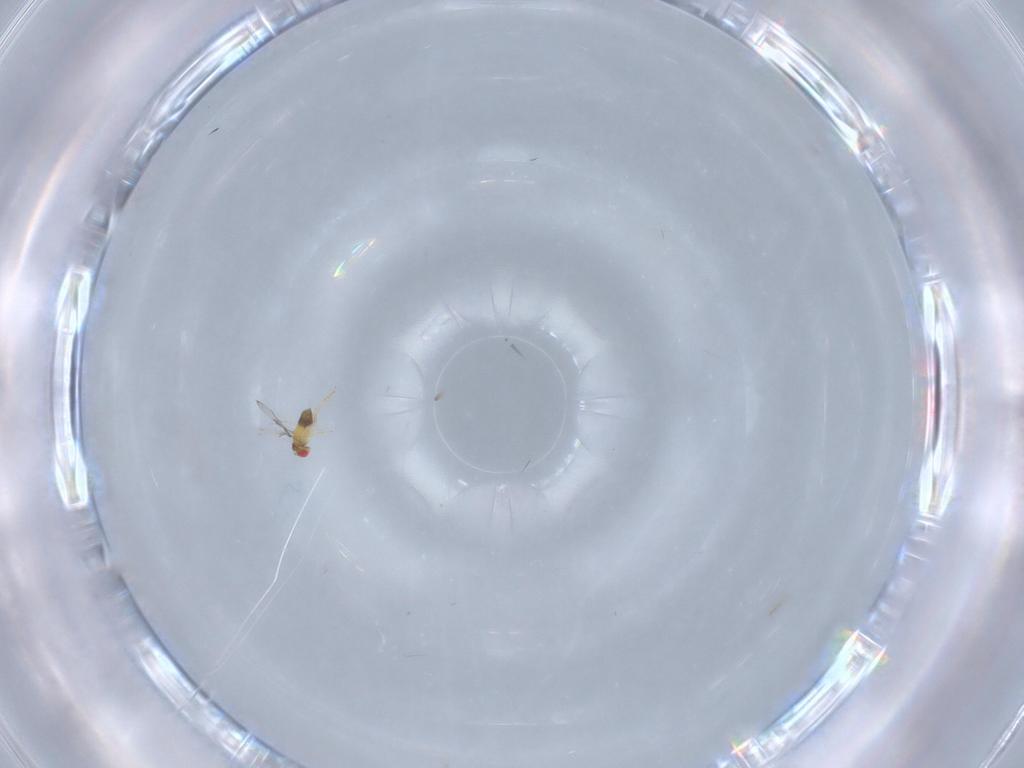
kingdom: Animalia
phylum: Arthropoda
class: Insecta
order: Hymenoptera
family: Trichogrammatidae
